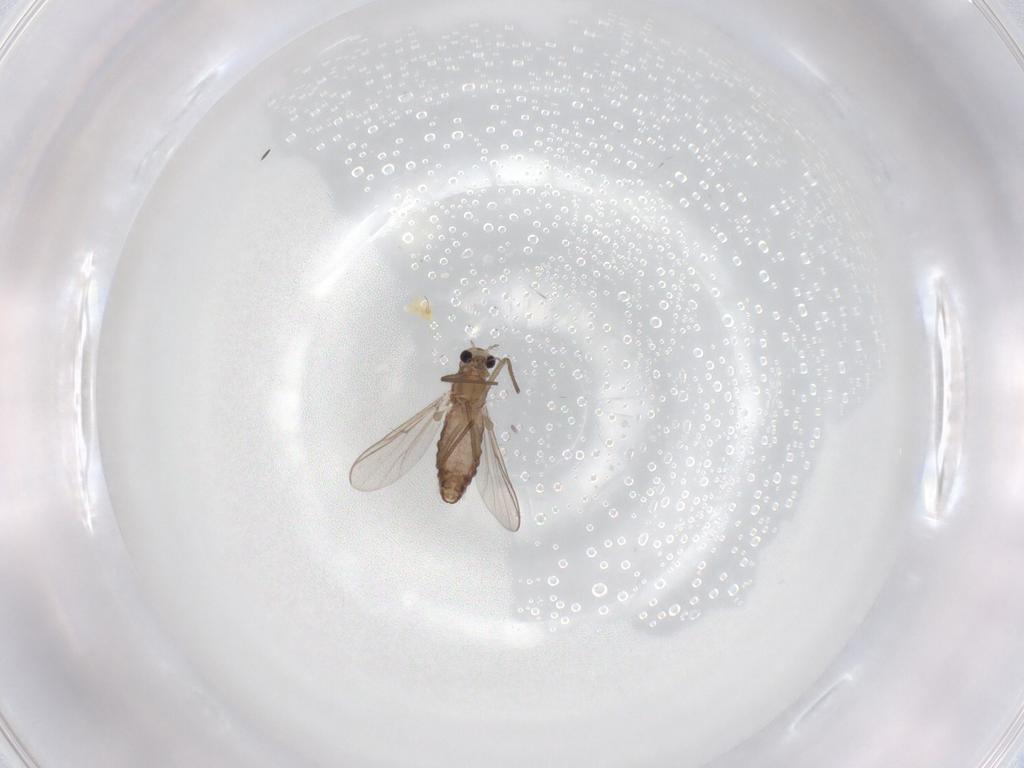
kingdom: Animalia
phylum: Arthropoda
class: Insecta
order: Diptera
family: Chironomidae
